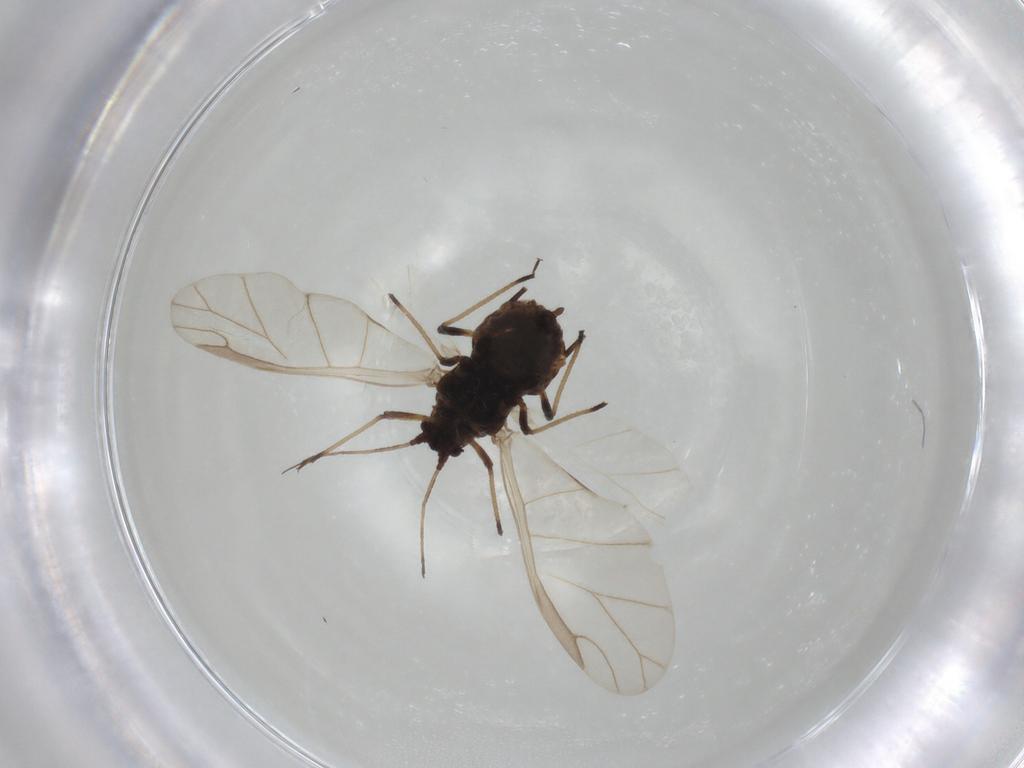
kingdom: Animalia
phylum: Arthropoda
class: Insecta
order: Hemiptera
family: Aphididae
